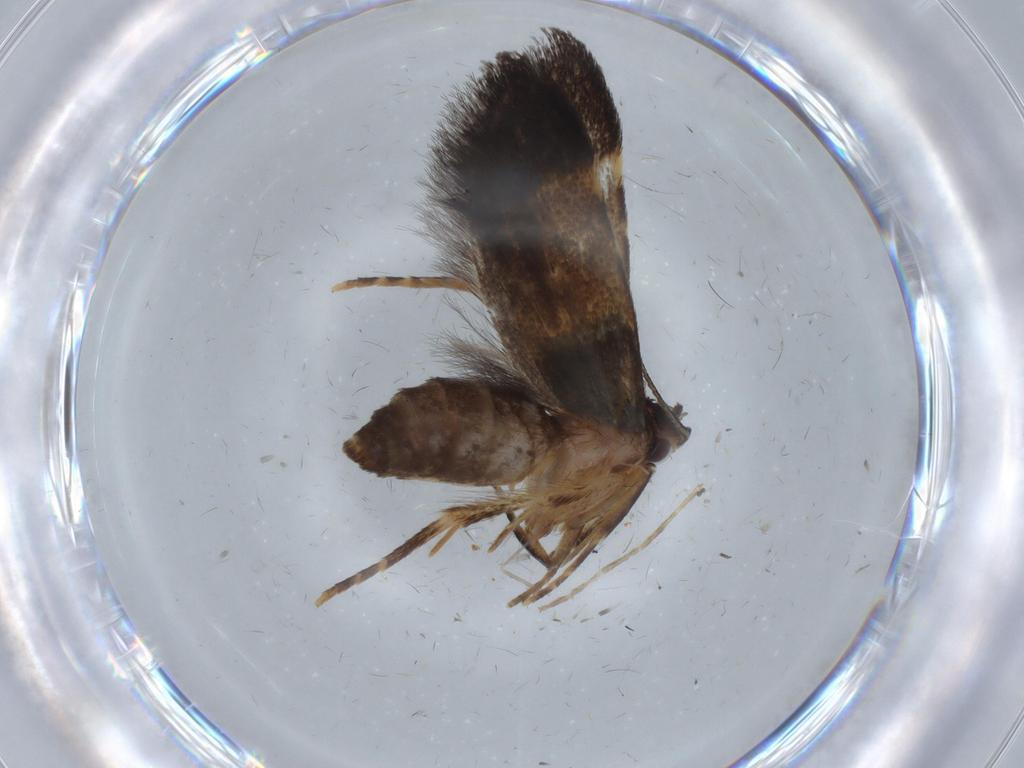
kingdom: Animalia
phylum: Arthropoda
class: Insecta
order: Lepidoptera
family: Cosmopterigidae
